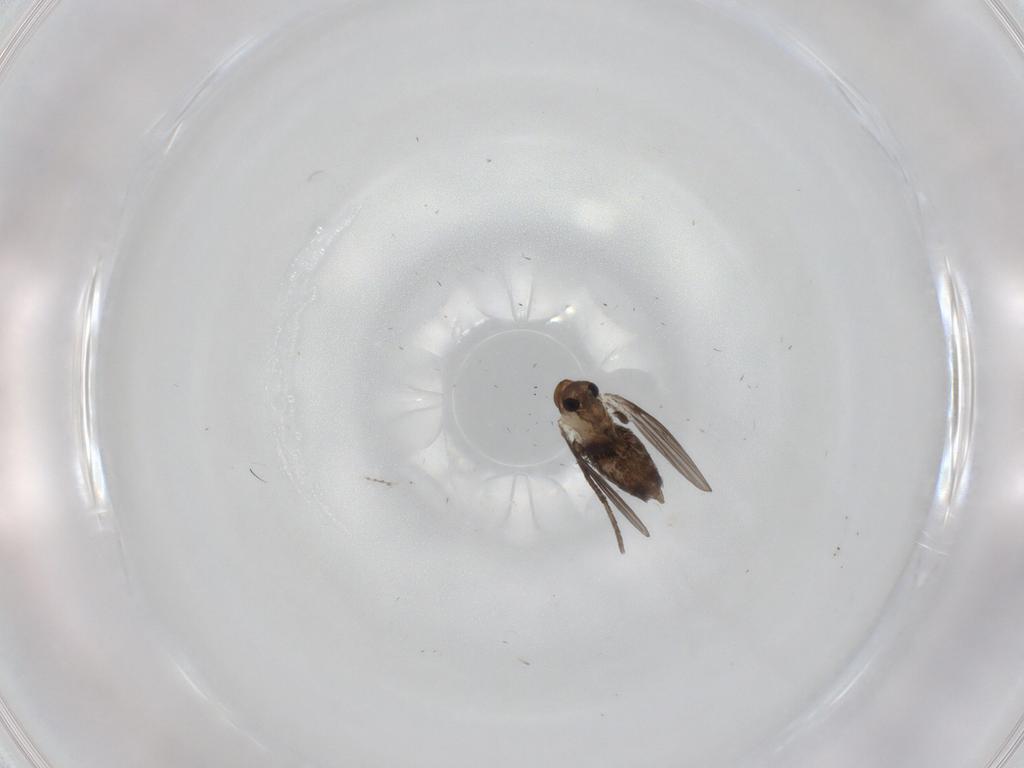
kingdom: Animalia
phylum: Arthropoda
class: Insecta
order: Diptera
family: Psychodidae
